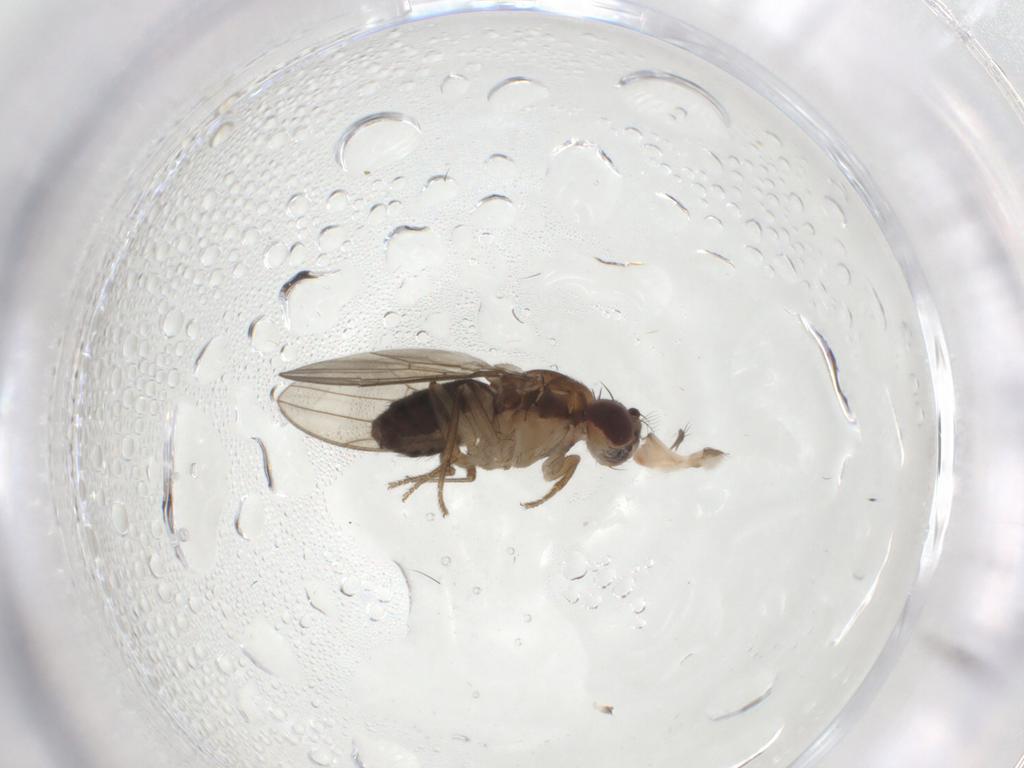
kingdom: Animalia
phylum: Arthropoda
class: Insecta
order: Diptera
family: Drosophilidae
